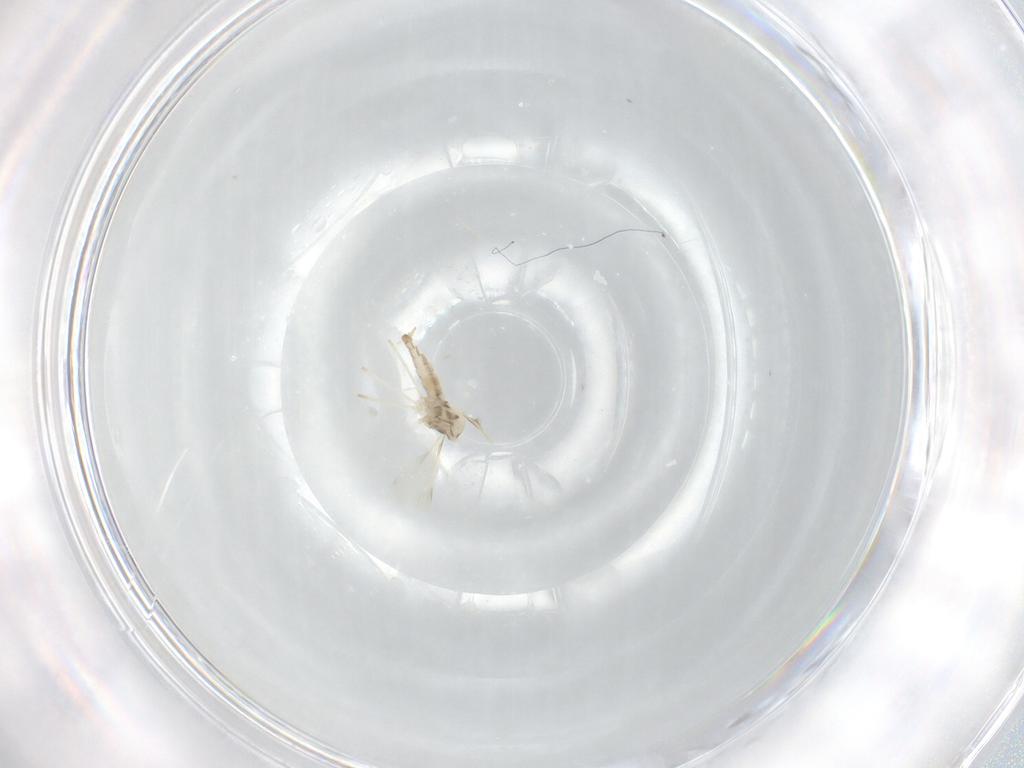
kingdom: Animalia
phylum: Arthropoda
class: Insecta
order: Diptera
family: Cecidomyiidae
